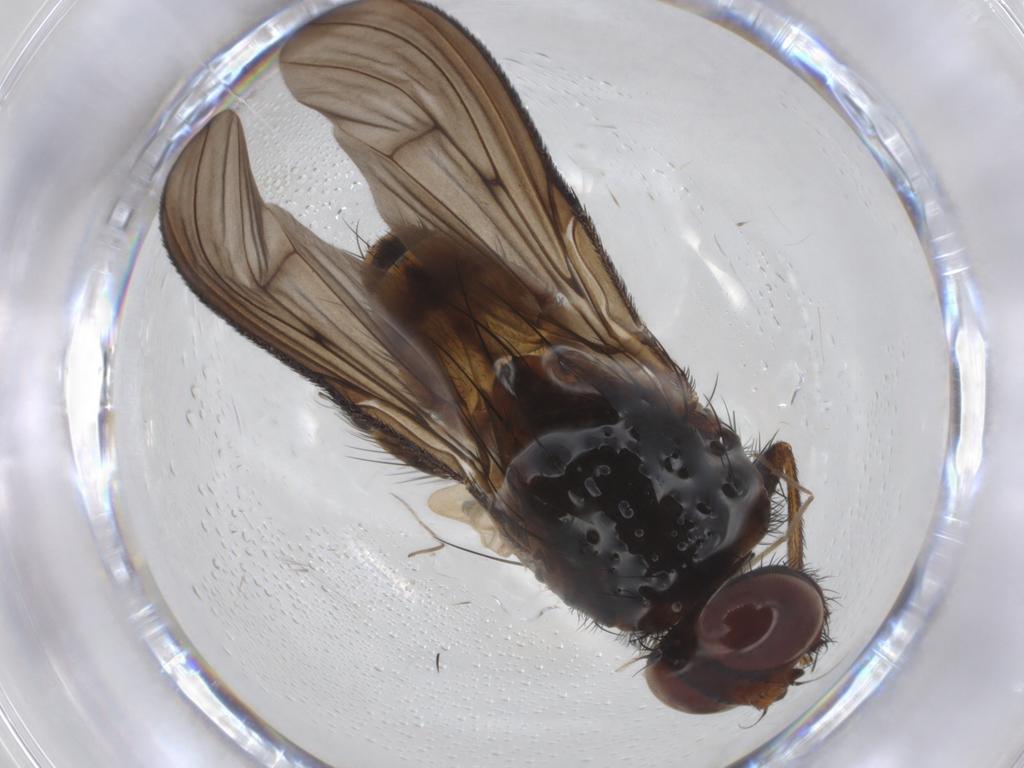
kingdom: Animalia
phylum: Arthropoda
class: Insecta
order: Diptera
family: Muscidae
